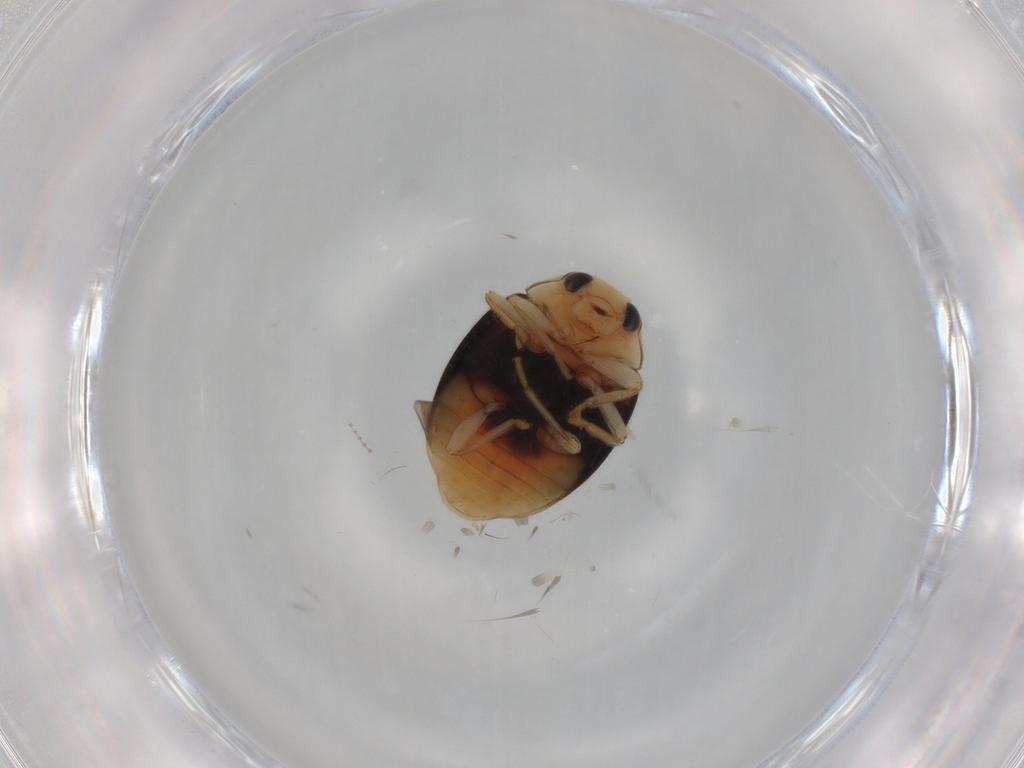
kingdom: Animalia
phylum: Arthropoda
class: Insecta
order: Coleoptera
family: Coccinellidae
